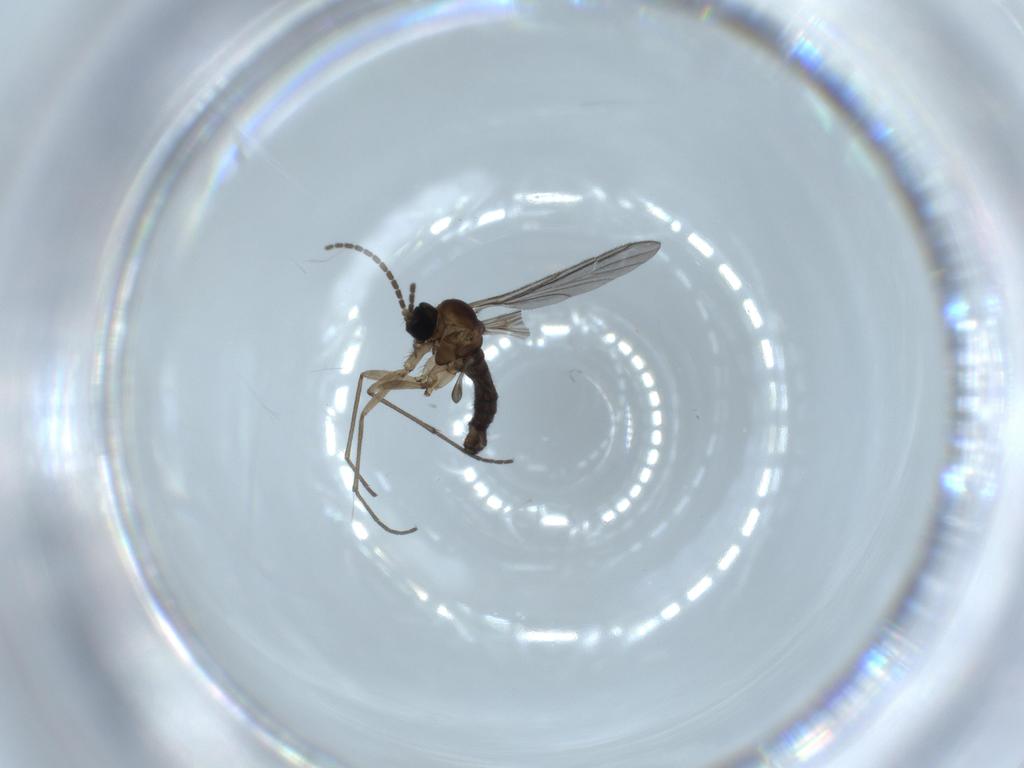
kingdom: Animalia
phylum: Arthropoda
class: Insecta
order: Diptera
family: Sciaridae
